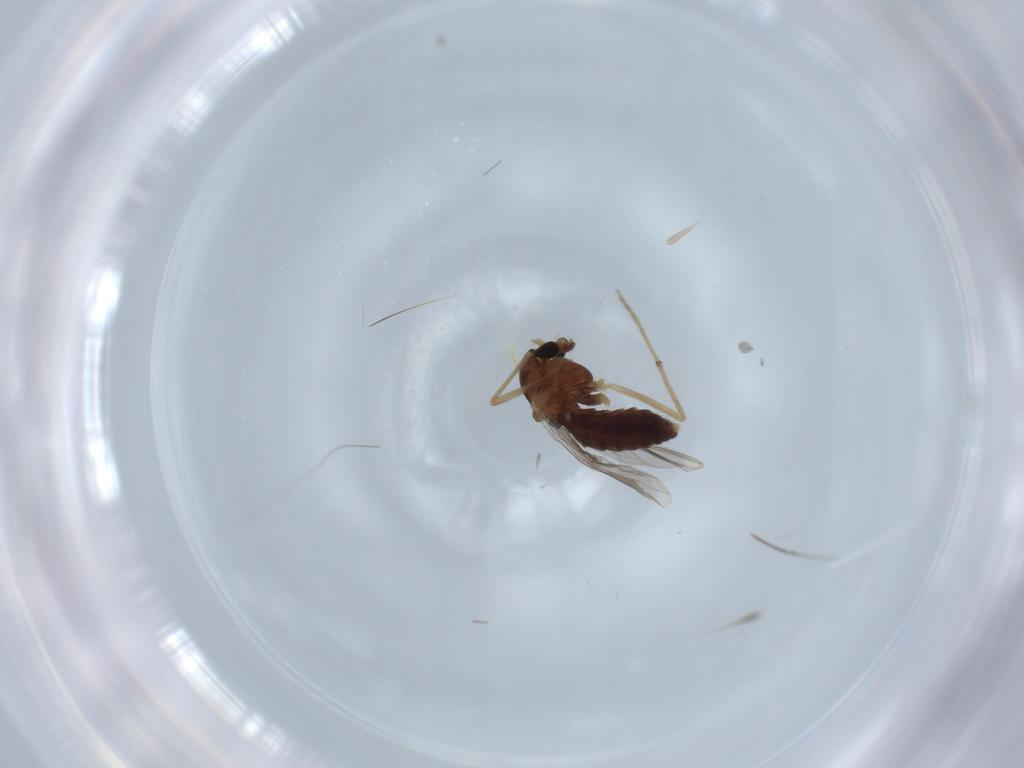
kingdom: Animalia
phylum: Arthropoda
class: Insecta
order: Diptera
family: Chironomidae
